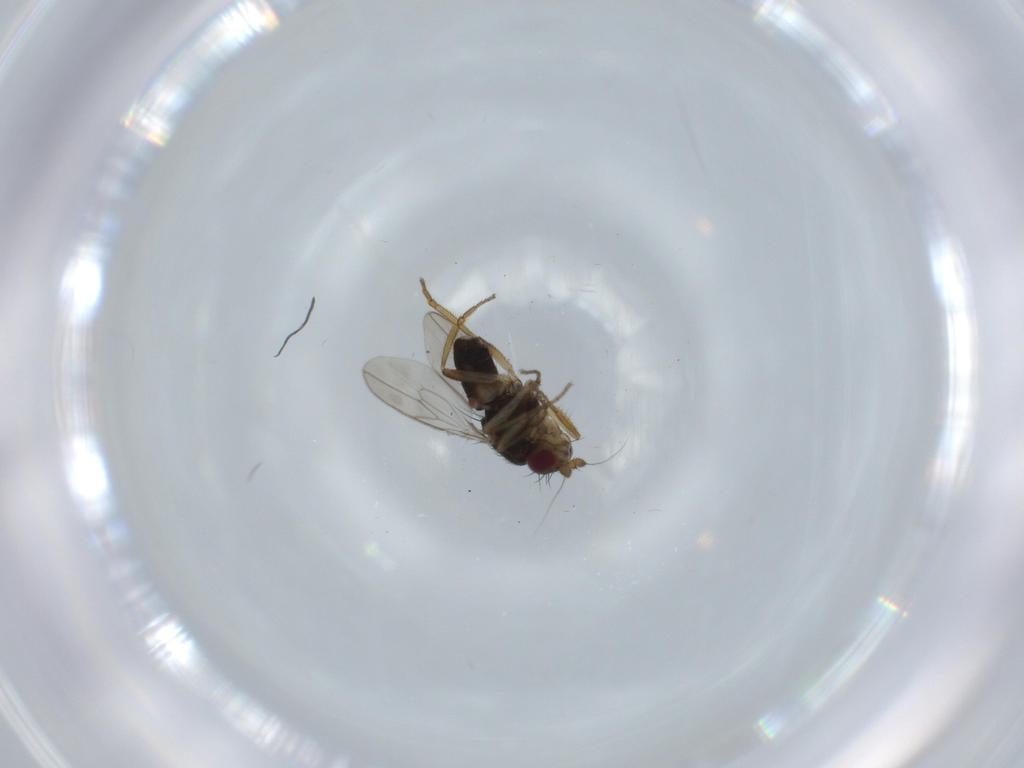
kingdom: Animalia
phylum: Arthropoda
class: Insecta
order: Diptera
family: Sphaeroceridae
